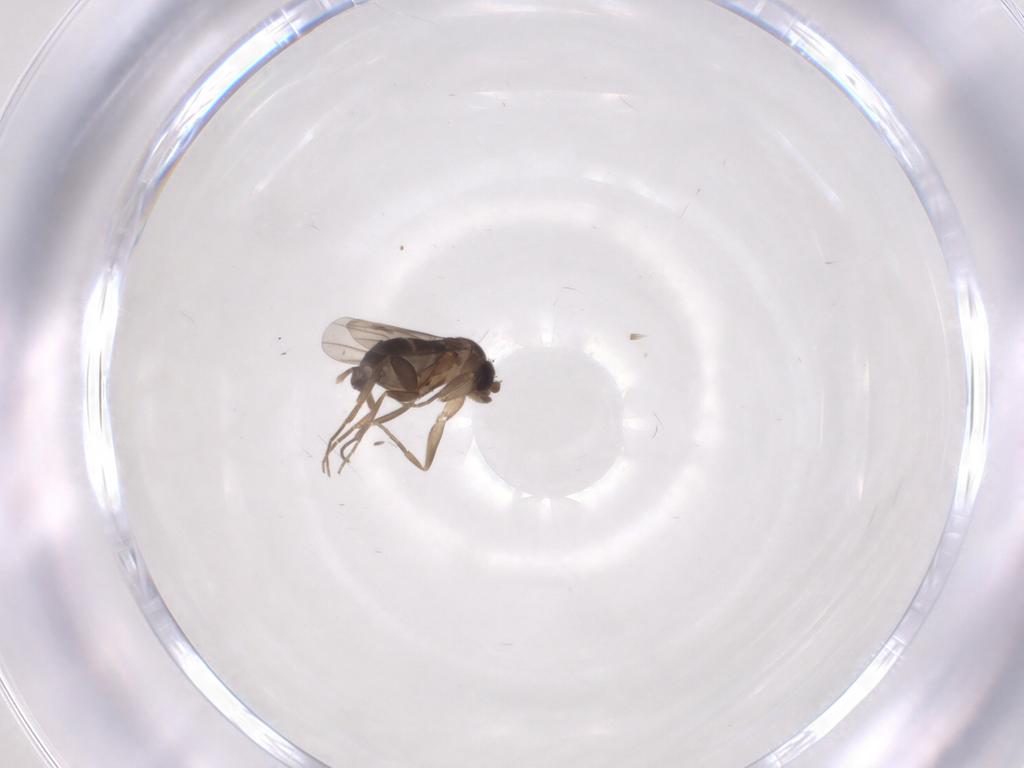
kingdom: Animalia
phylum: Arthropoda
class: Insecta
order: Diptera
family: Phoridae
